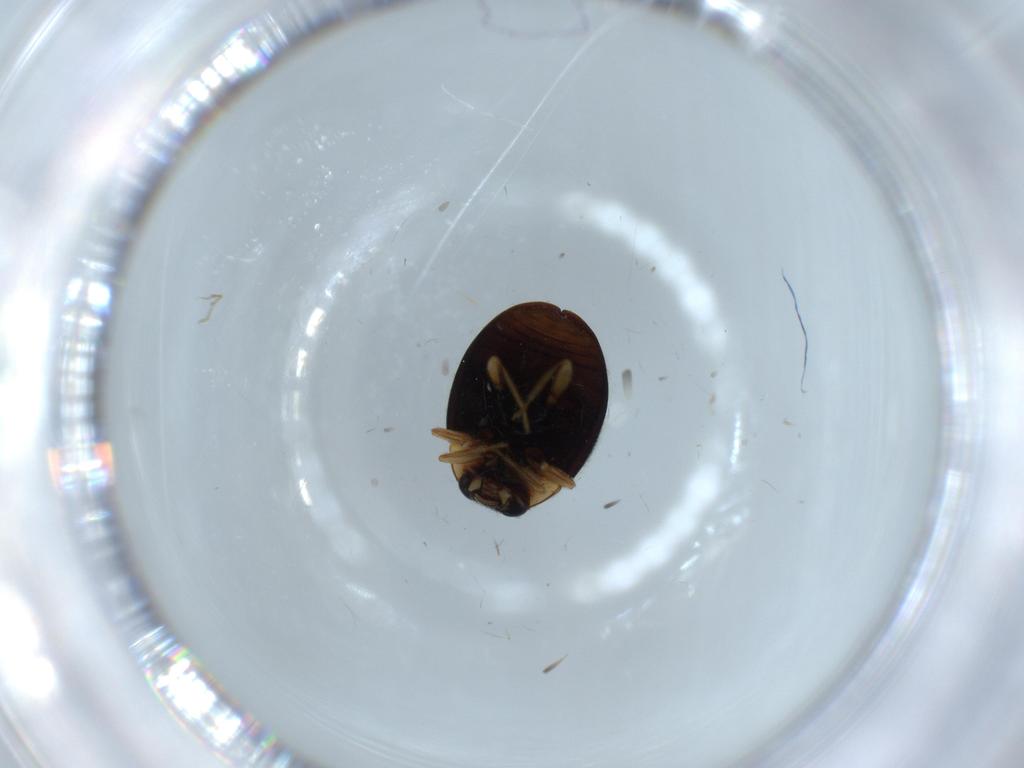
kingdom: Animalia
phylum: Arthropoda
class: Insecta
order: Coleoptera
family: Coccinellidae
